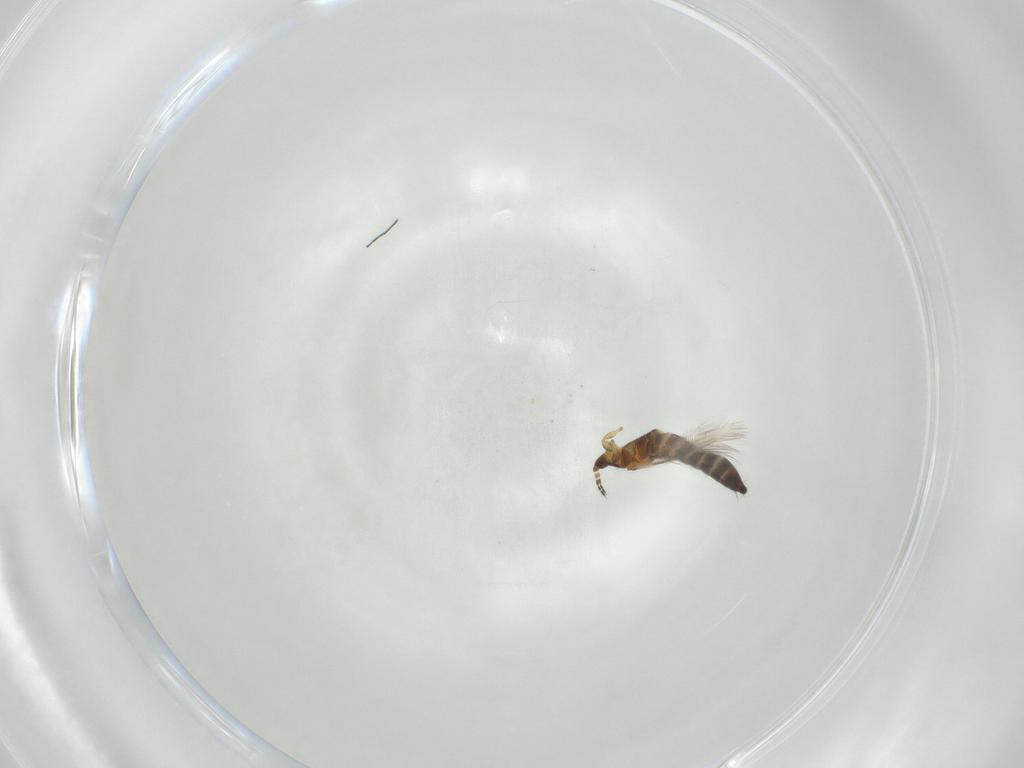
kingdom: Animalia
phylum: Arthropoda
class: Insecta
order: Thysanoptera
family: Thripidae
